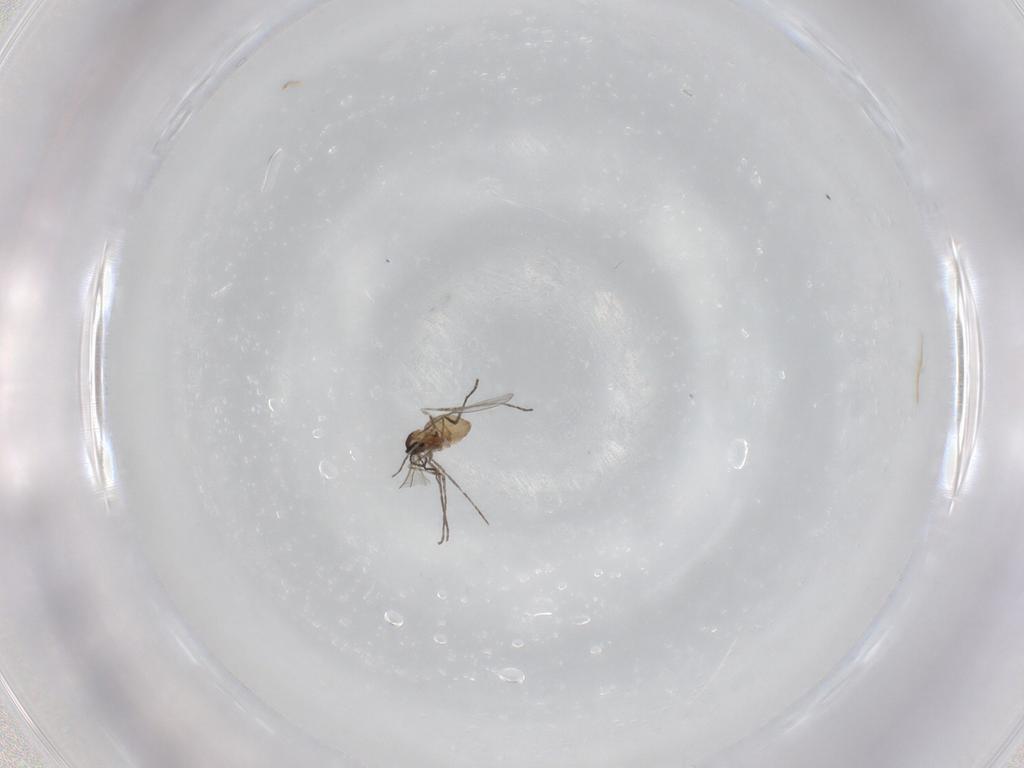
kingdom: Animalia
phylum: Arthropoda
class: Insecta
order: Diptera
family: Cecidomyiidae
